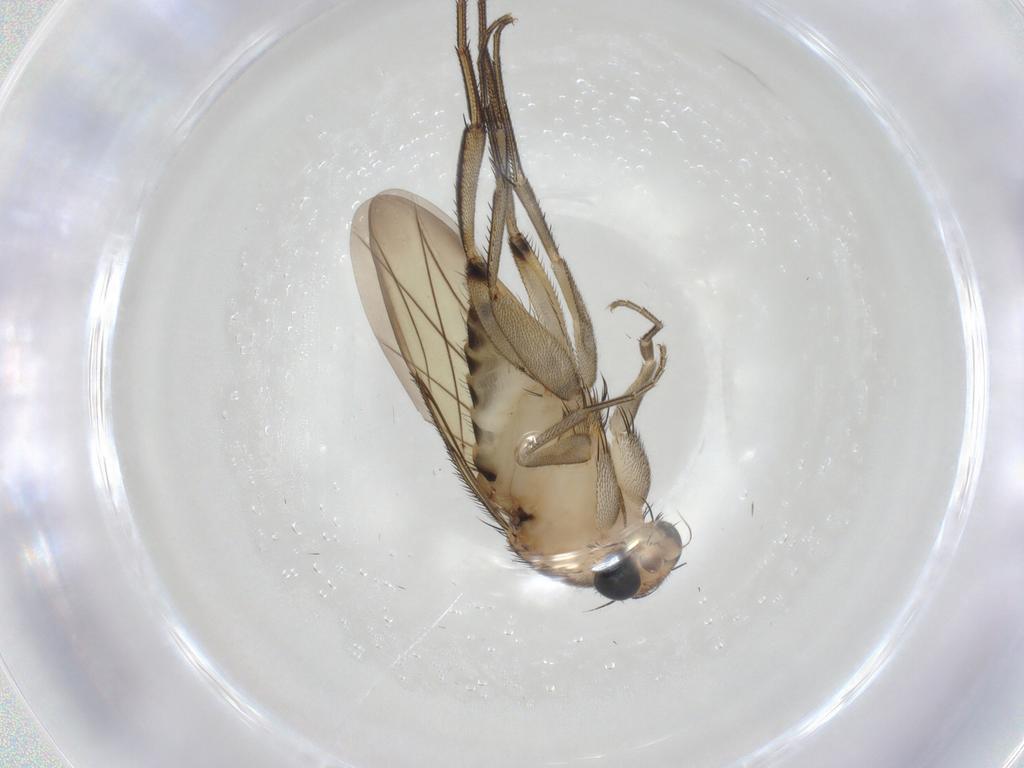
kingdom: Animalia
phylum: Arthropoda
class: Insecta
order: Diptera
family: Phoridae
